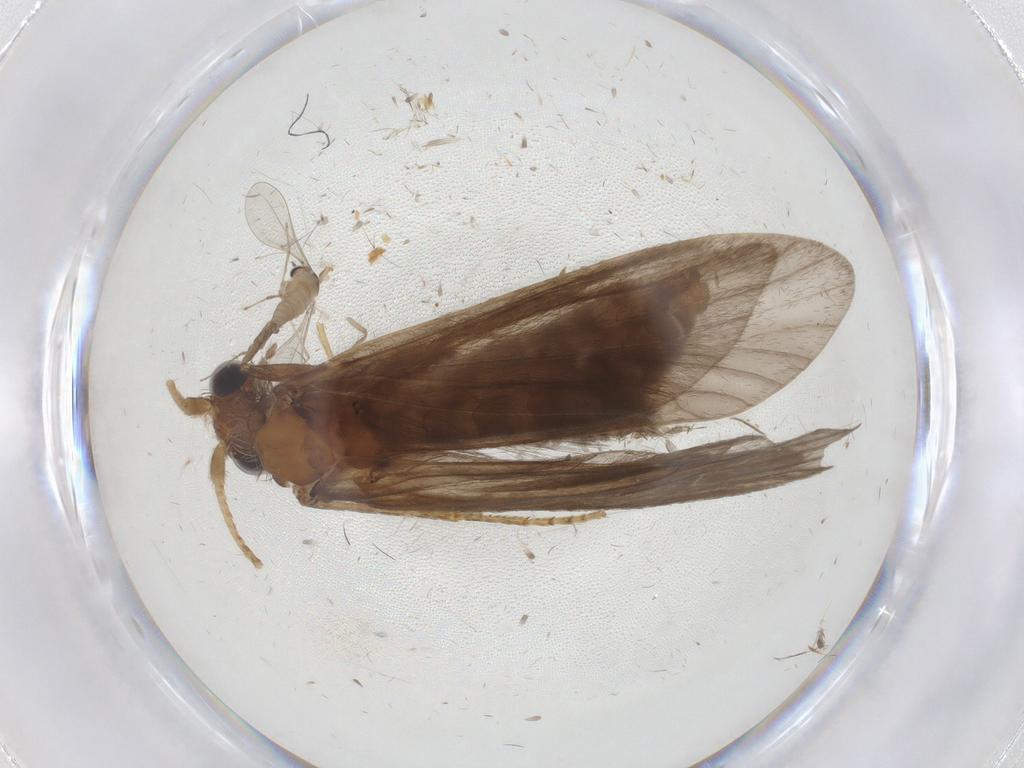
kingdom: Animalia
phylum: Arthropoda
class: Insecta
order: Trichoptera
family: Helicopsychidae
